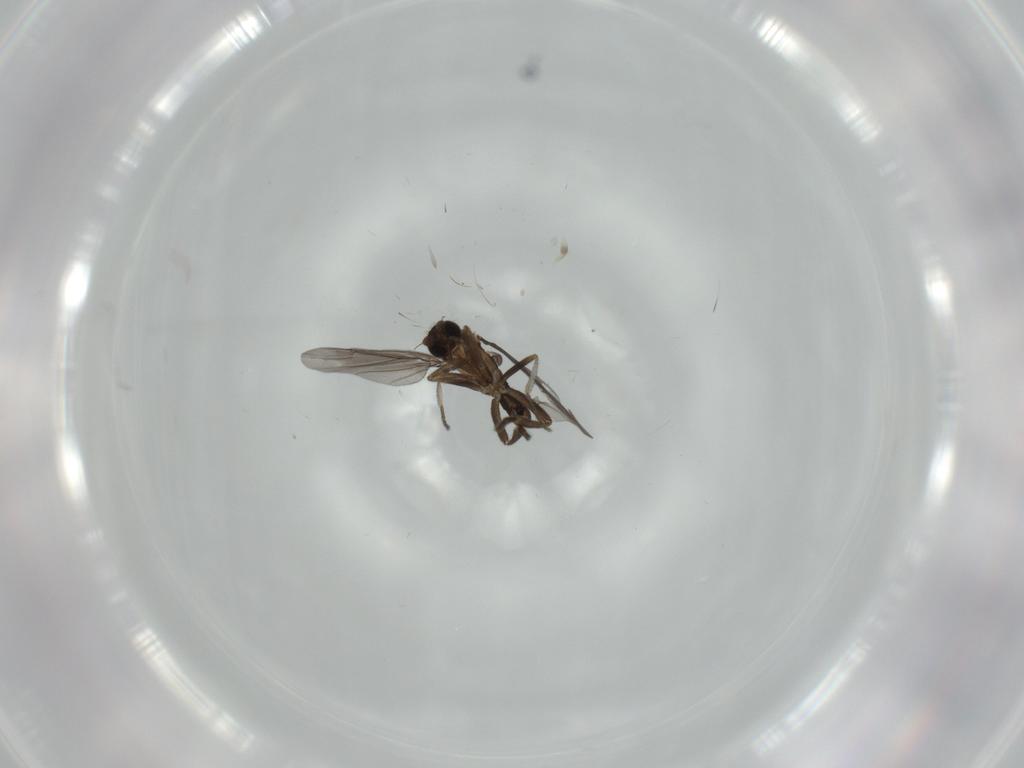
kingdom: Animalia
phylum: Arthropoda
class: Insecta
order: Diptera
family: Phoridae
